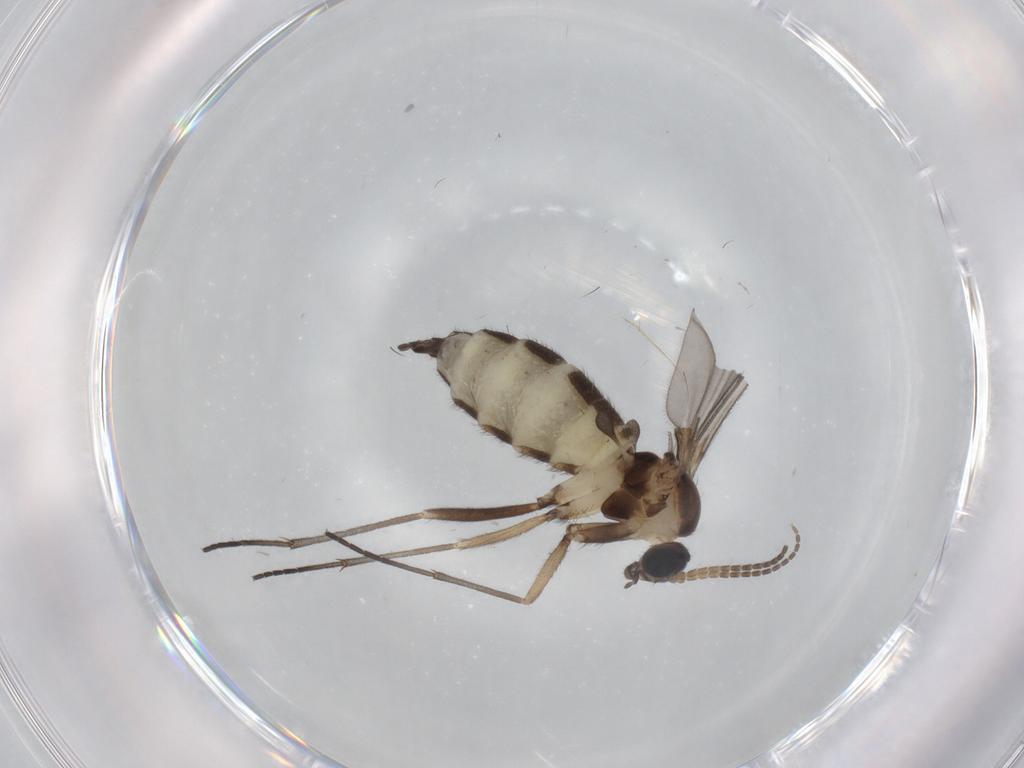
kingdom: Animalia
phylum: Arthropoda
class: Insecta
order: Diptera
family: Sciaridae
